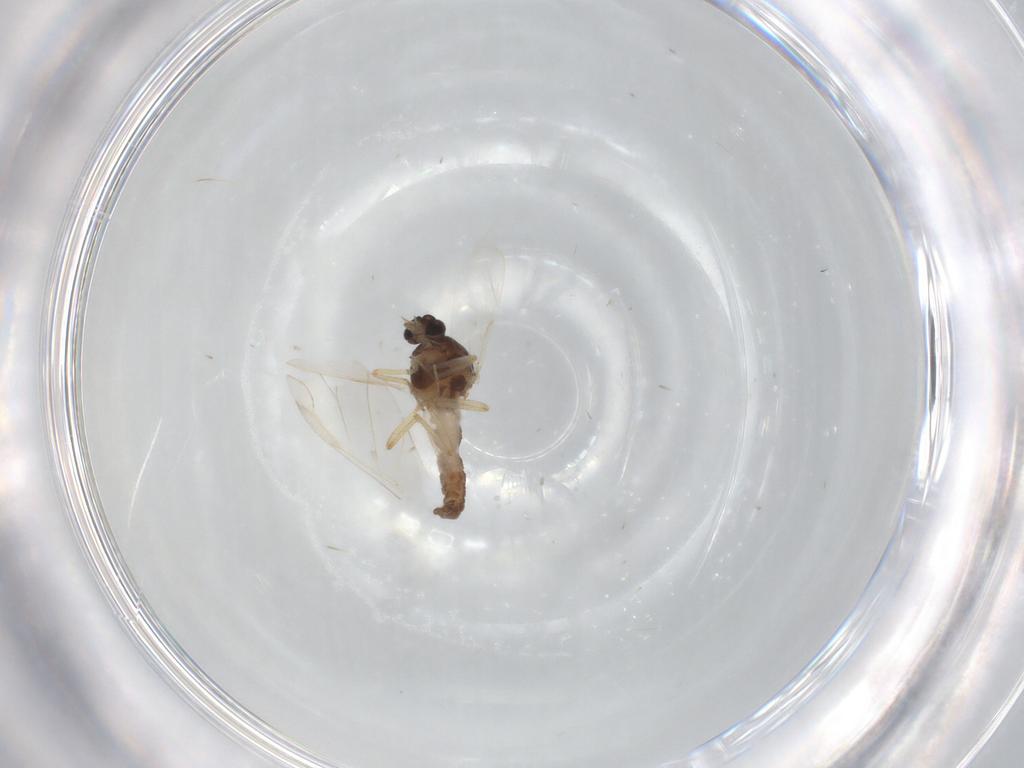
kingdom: Animalia
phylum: Arthropoda
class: Insecta
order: Diptera
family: Ceratopogonidae
